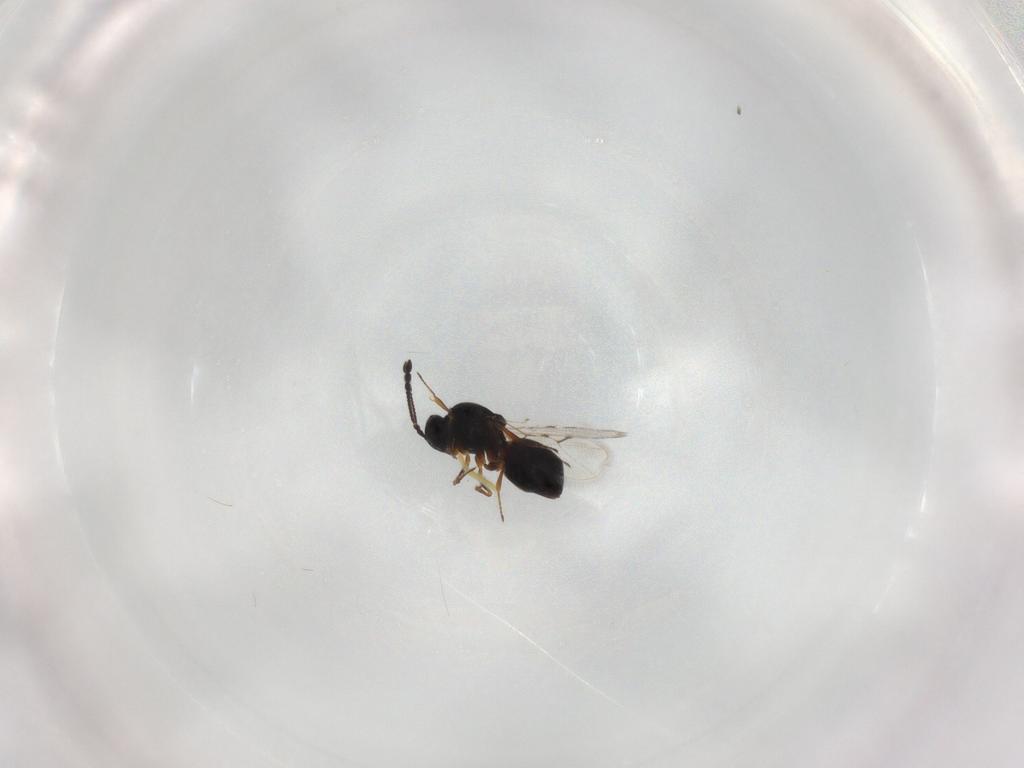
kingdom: Animalia
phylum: Arthropoda
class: Insecta
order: Hymenoptera
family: Figitidae
